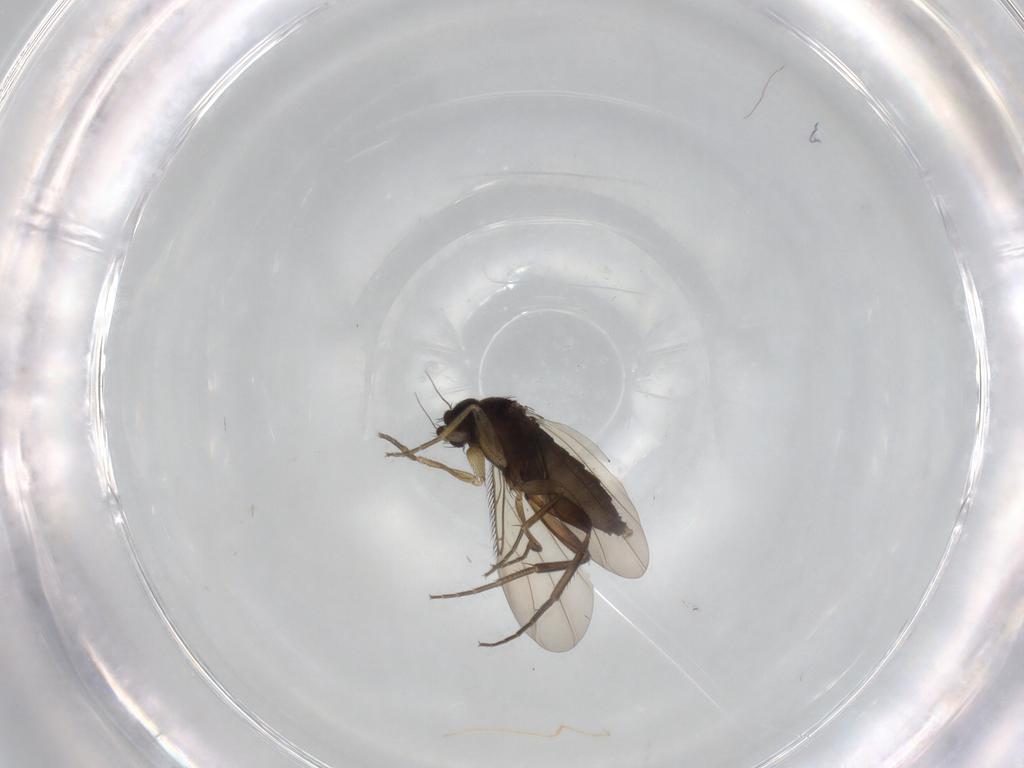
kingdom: Animalia
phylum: Arthropoda
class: Insecta
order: Diptera
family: Phoridae
